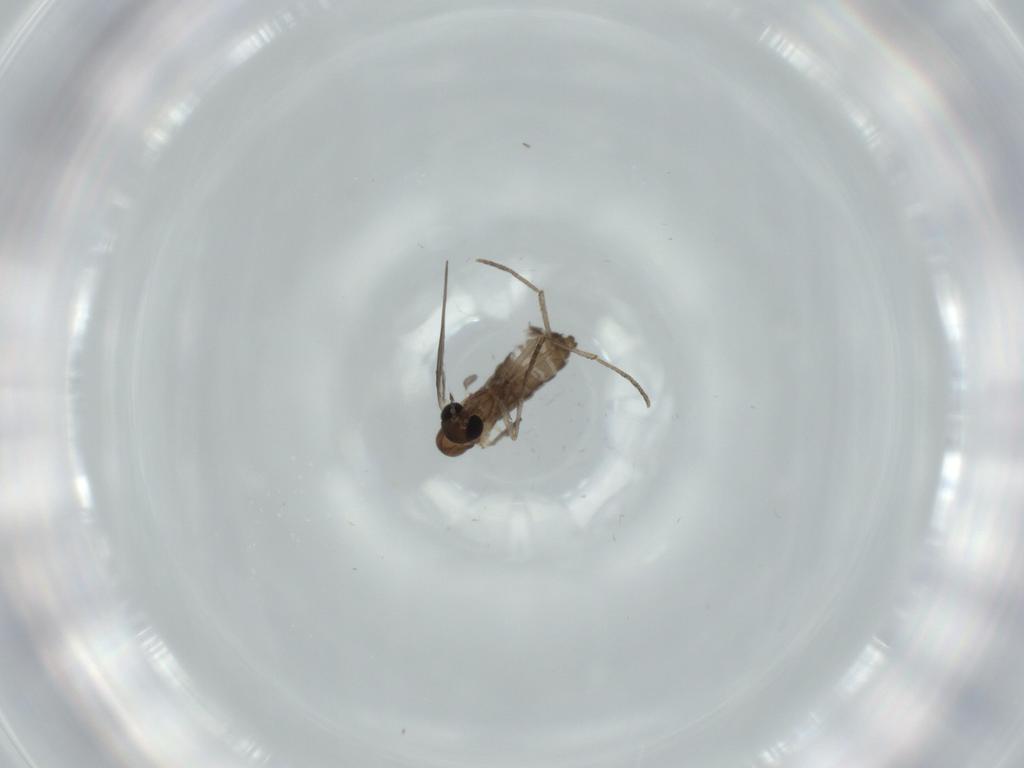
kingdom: Animalia
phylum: Arthropoda
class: Insecta
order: Diptera
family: Psychodidae
